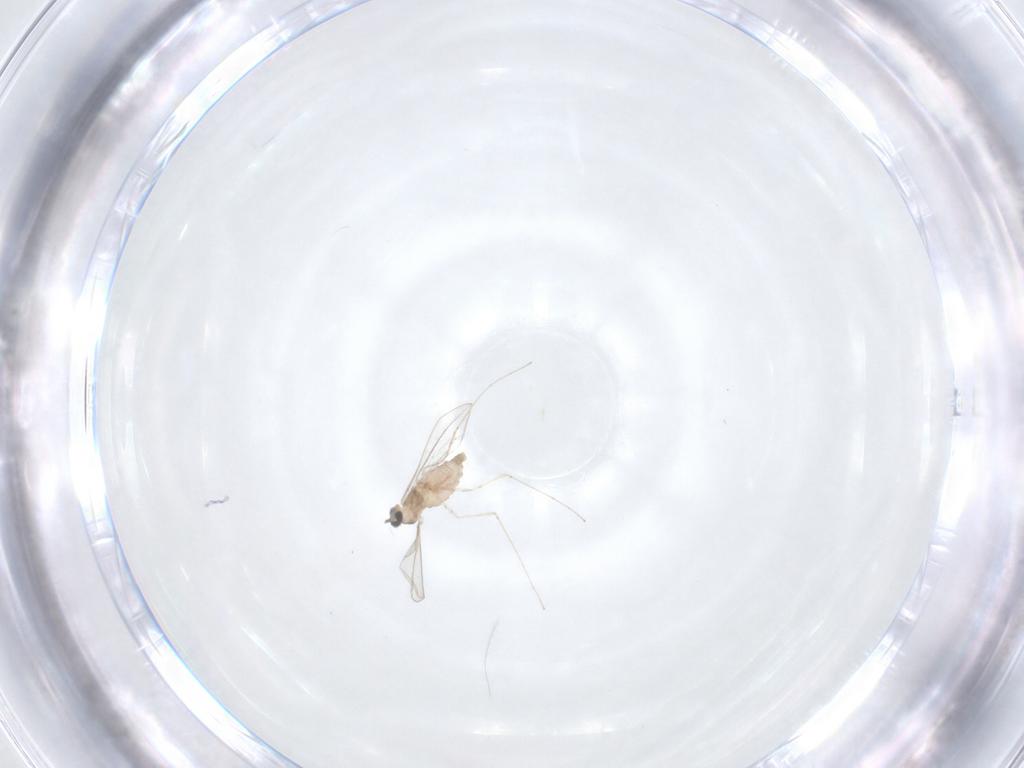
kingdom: Animalia
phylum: Arthropoda
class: Insecta
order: Diptera
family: Cecidomyiidae
